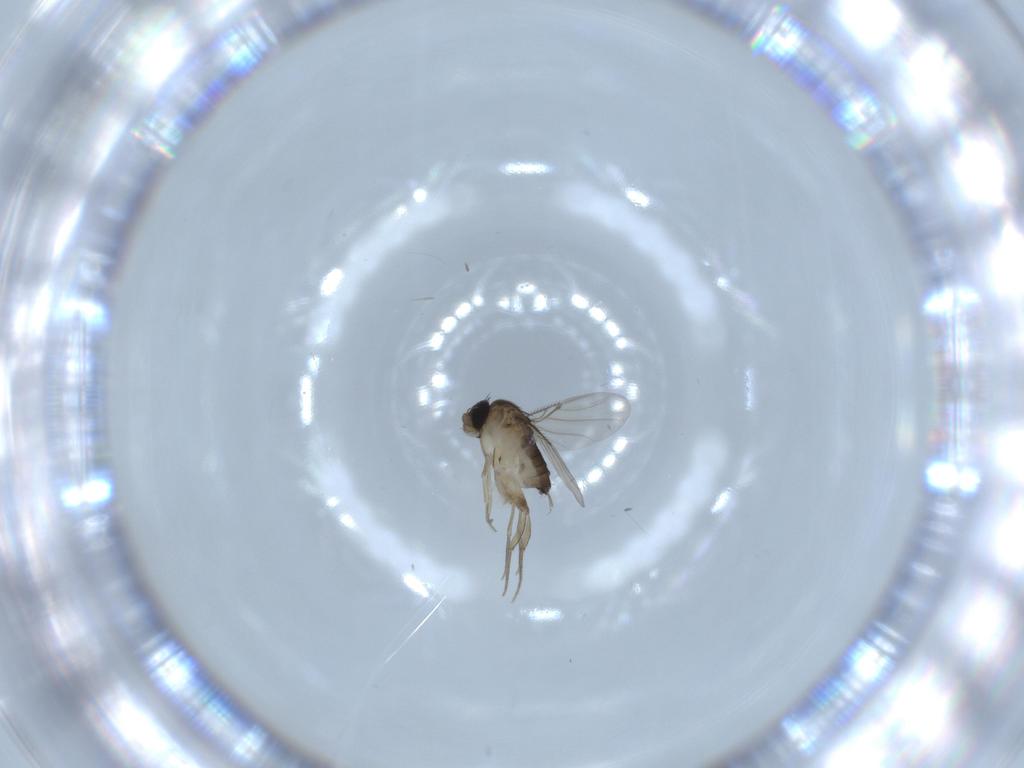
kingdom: Animalia
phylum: Arthropoda
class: Insecta
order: Diptera
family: Phoridae
